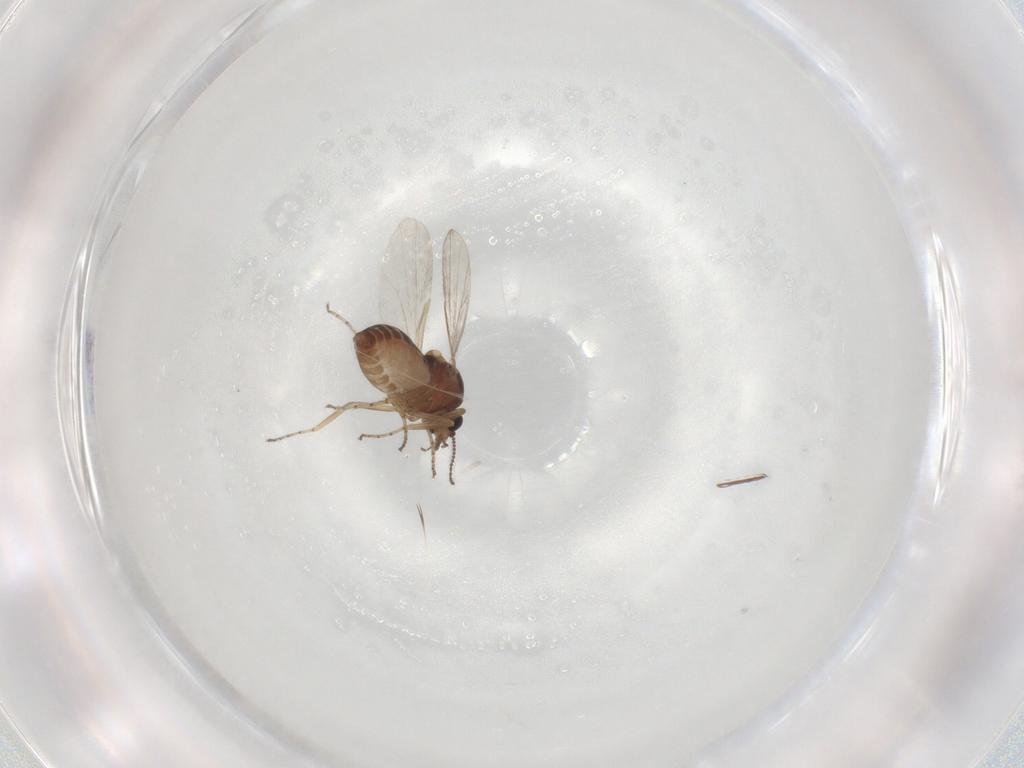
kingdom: Animalia
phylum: Arthropoda
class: Insecta
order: Diptera
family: Ceratopogonidae
